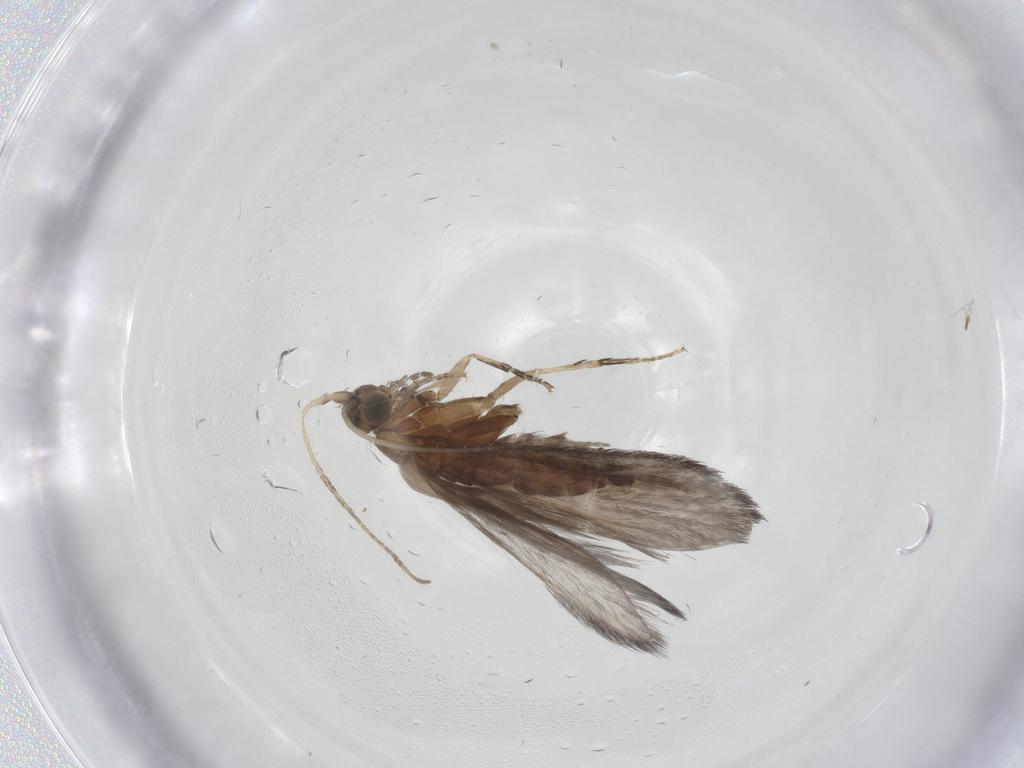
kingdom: Animalia
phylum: Arthropoda
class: Insecta
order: Trichoptera
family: Glossosomatidae
